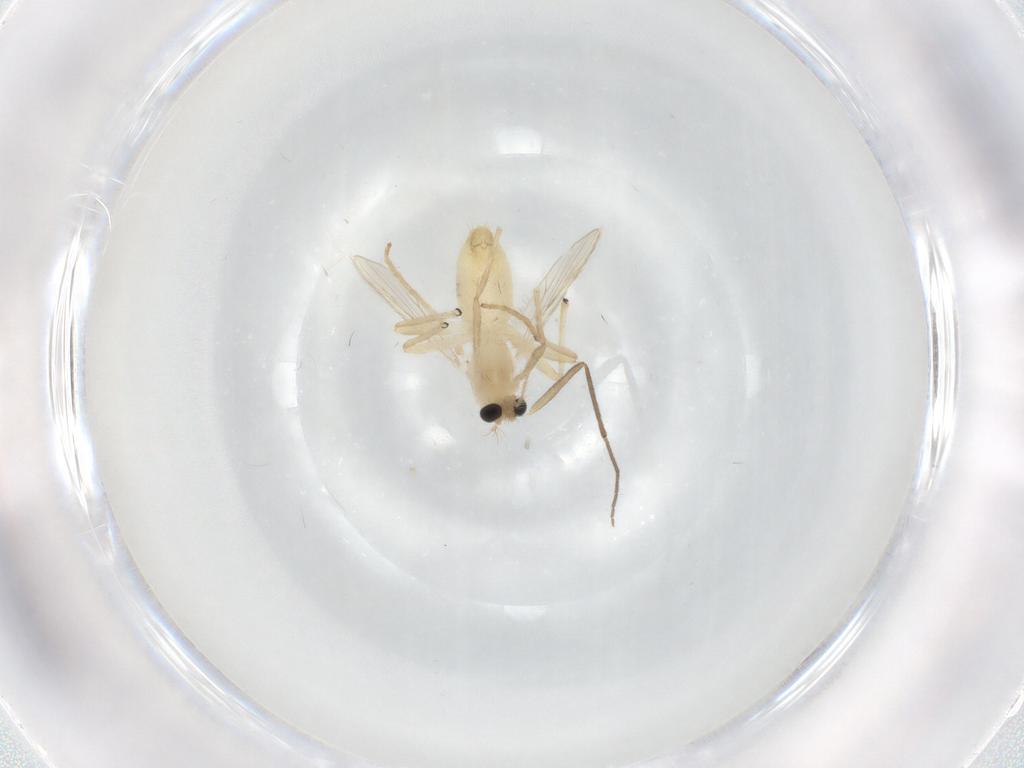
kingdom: Animalia
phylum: Arthropoda
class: Insecta
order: Diptera
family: Chironomidae
